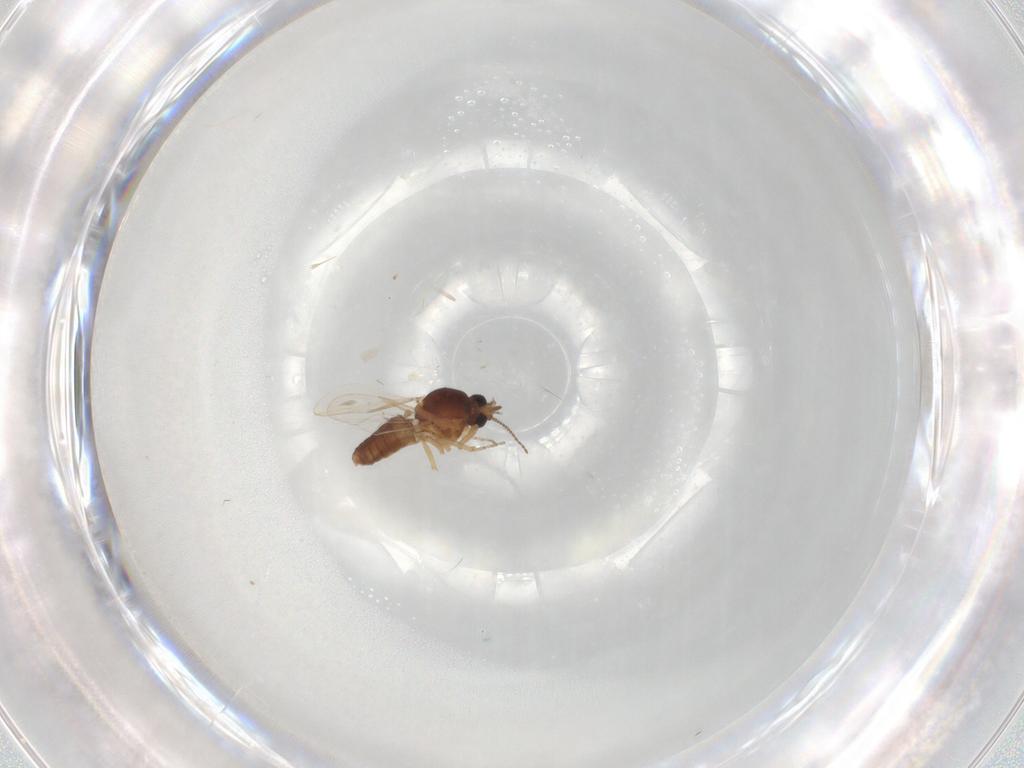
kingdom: Animalia
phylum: Arthropoda
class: Insecta
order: Diptera
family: Ceratopogonidae
